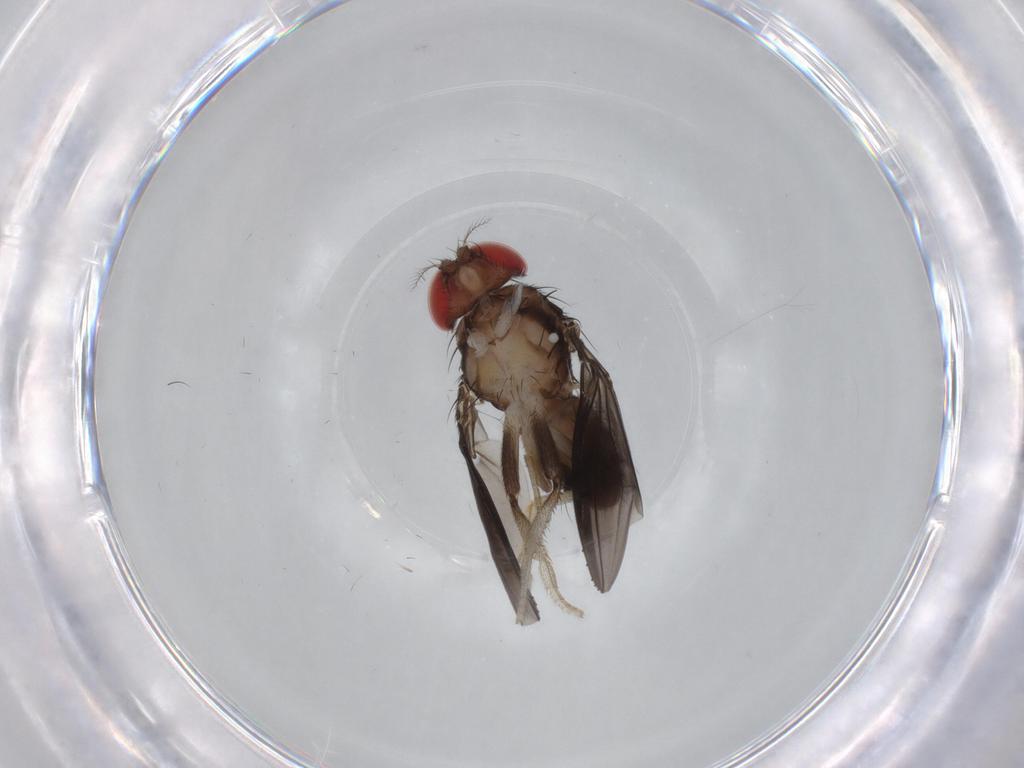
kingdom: Animalia
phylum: Arthropoda
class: Insecta
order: Diptera
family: Drosophilidae
